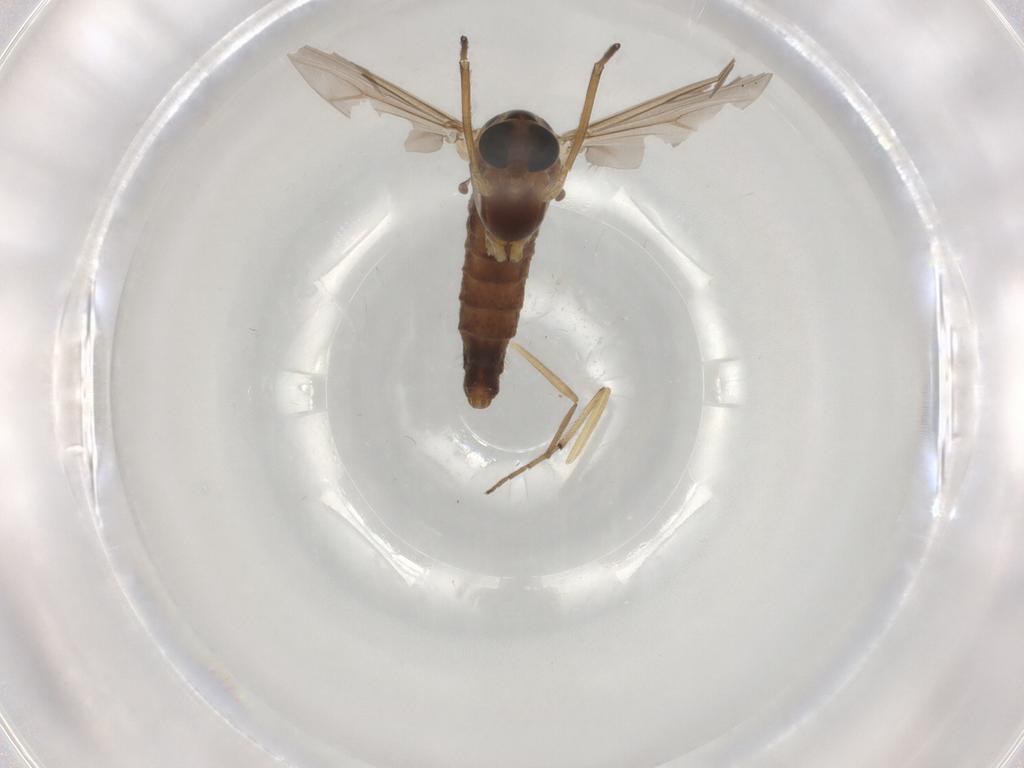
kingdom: Animalia
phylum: Arthropoda
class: Insecta
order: Diptera
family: Chironomidae
